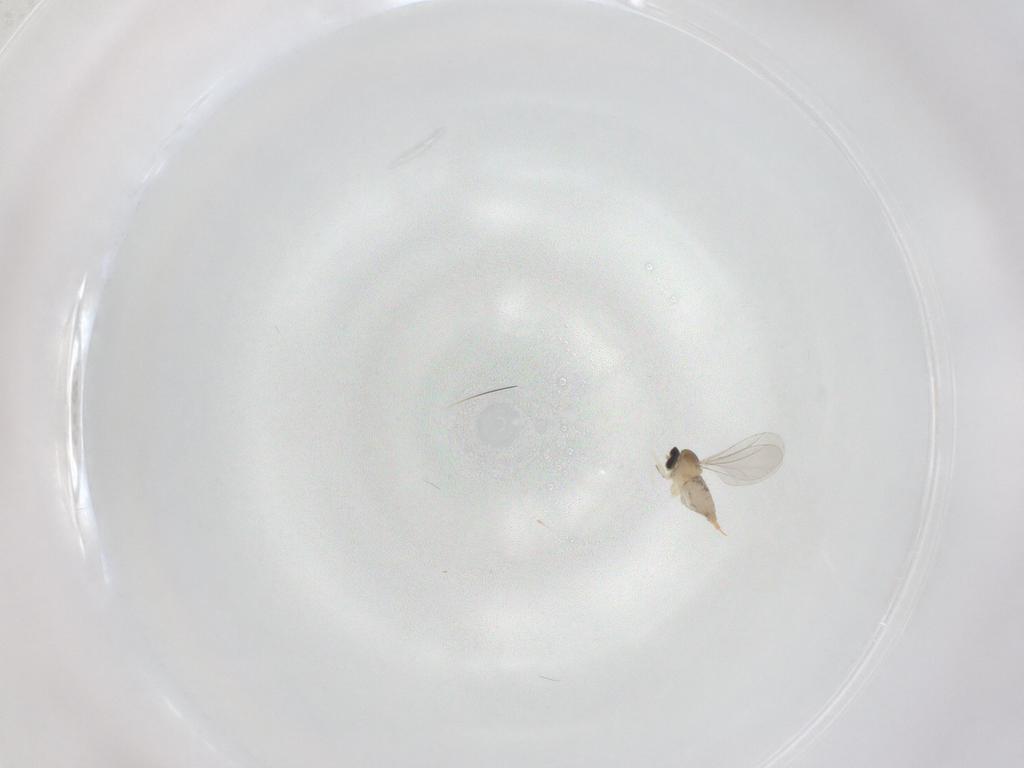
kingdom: Animalia
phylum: Arthropoda
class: Insecta
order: Diptera
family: Sciaridae
